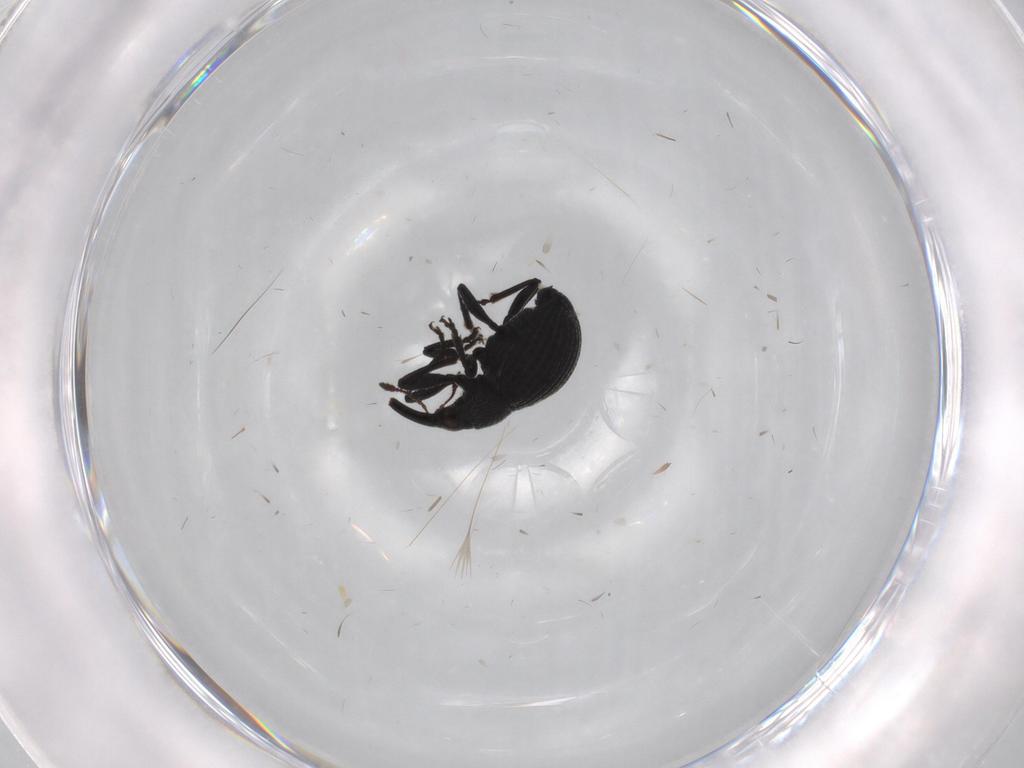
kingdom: Animalia
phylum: Arthropoda
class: Insecta
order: Coleoptera
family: Brentidae
